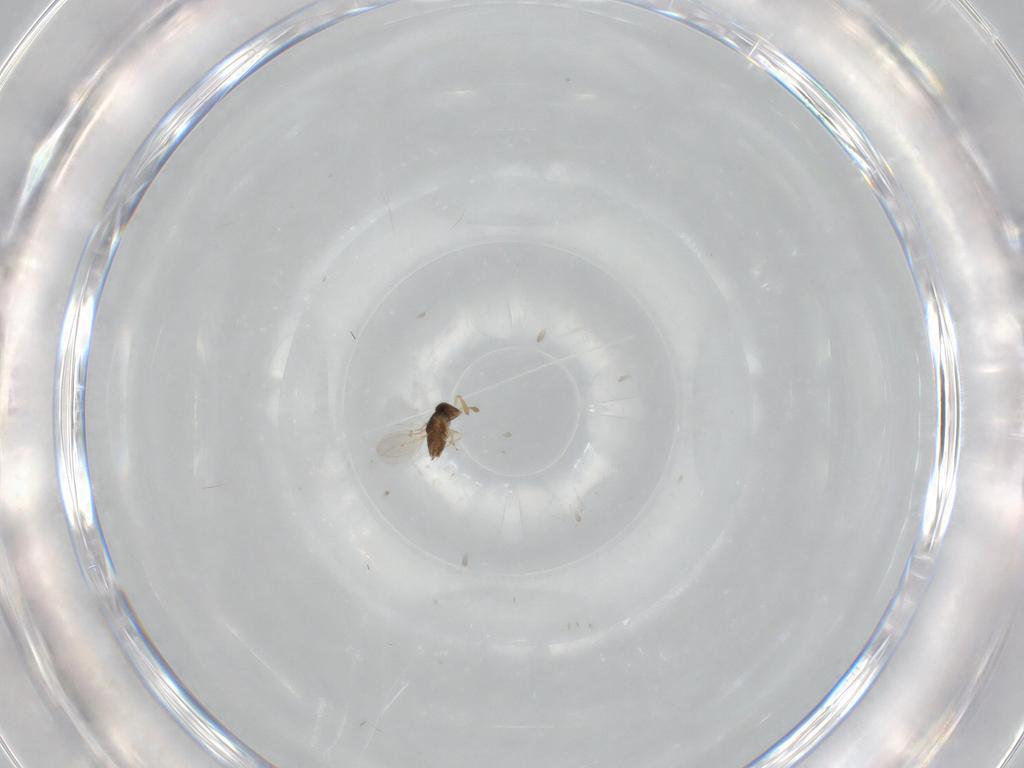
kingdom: Animalia
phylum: Arthropoda
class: Insecta
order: Hymenoptera
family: Encyrtidae
